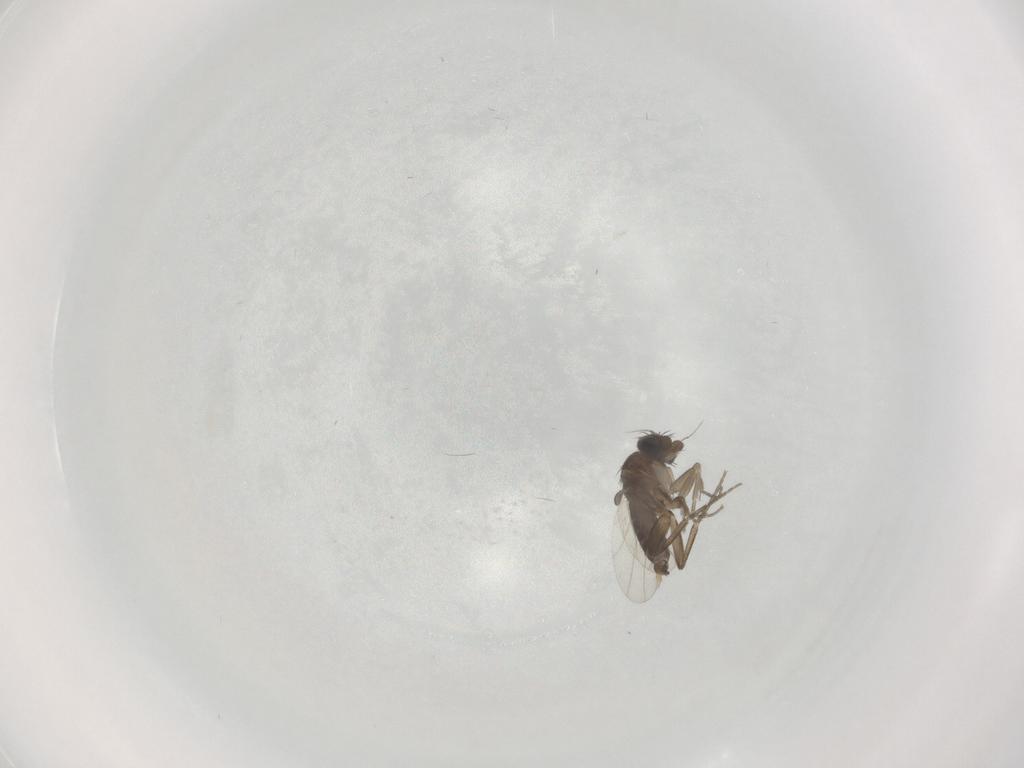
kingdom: Animalia
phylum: Arthropoda
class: Insecta
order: Diptera
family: Phoridae
